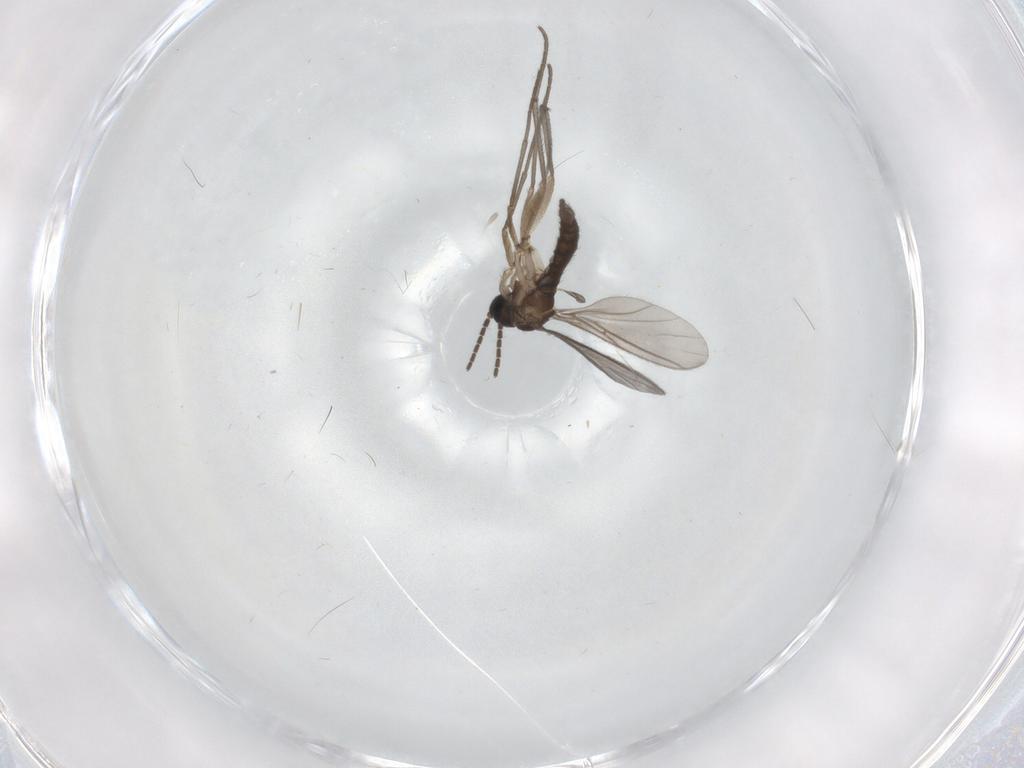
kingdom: Animalia
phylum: Arthropoda
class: Insecta
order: Diptera
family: Sciaridae
